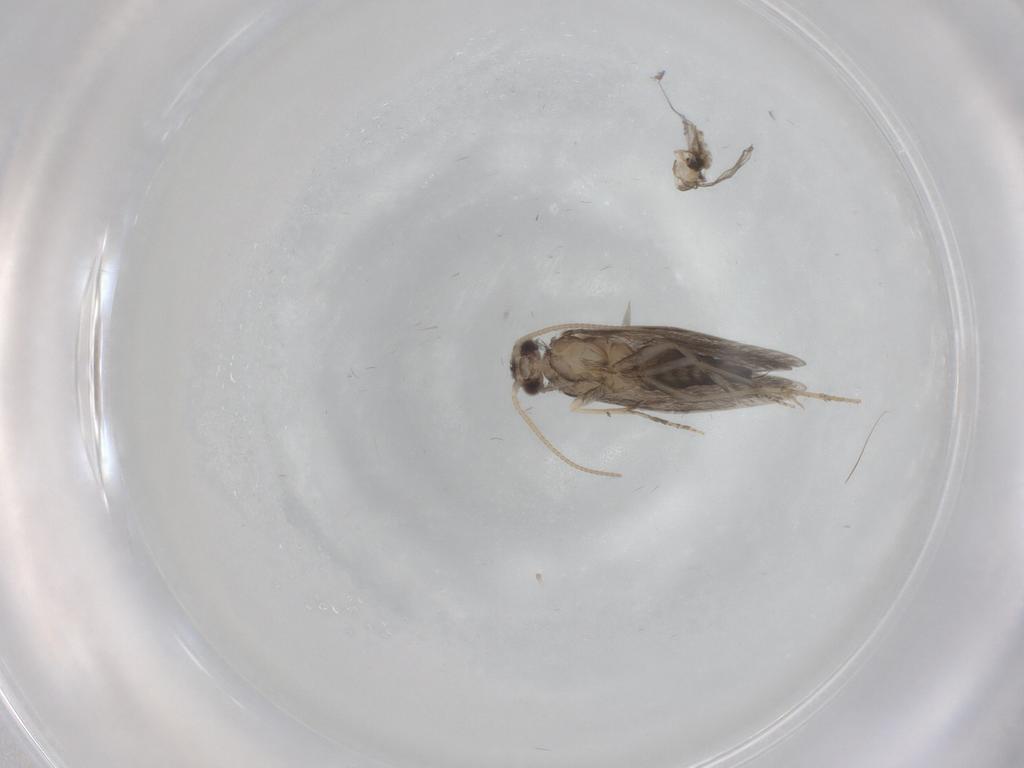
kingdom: Animalia
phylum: Arthropoda
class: Insecta
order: Trichoptera
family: Hydroptilidae
